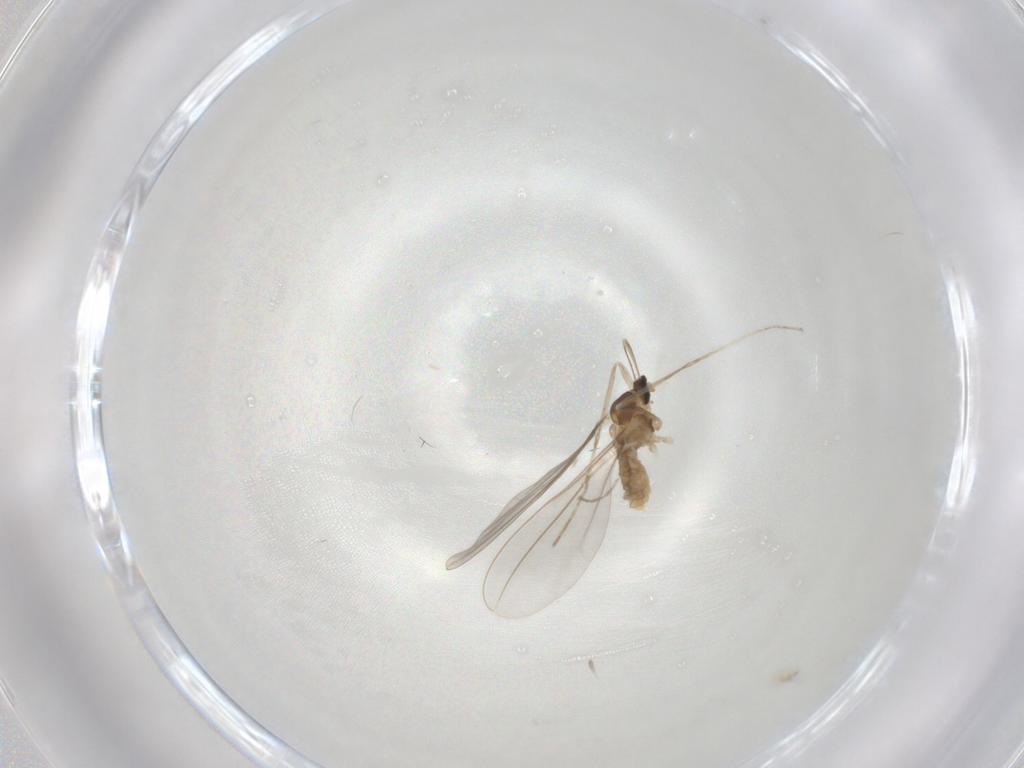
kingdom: Animalia
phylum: Arthropoda
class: Insecta
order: Diptera
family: Cecidomyiidae
